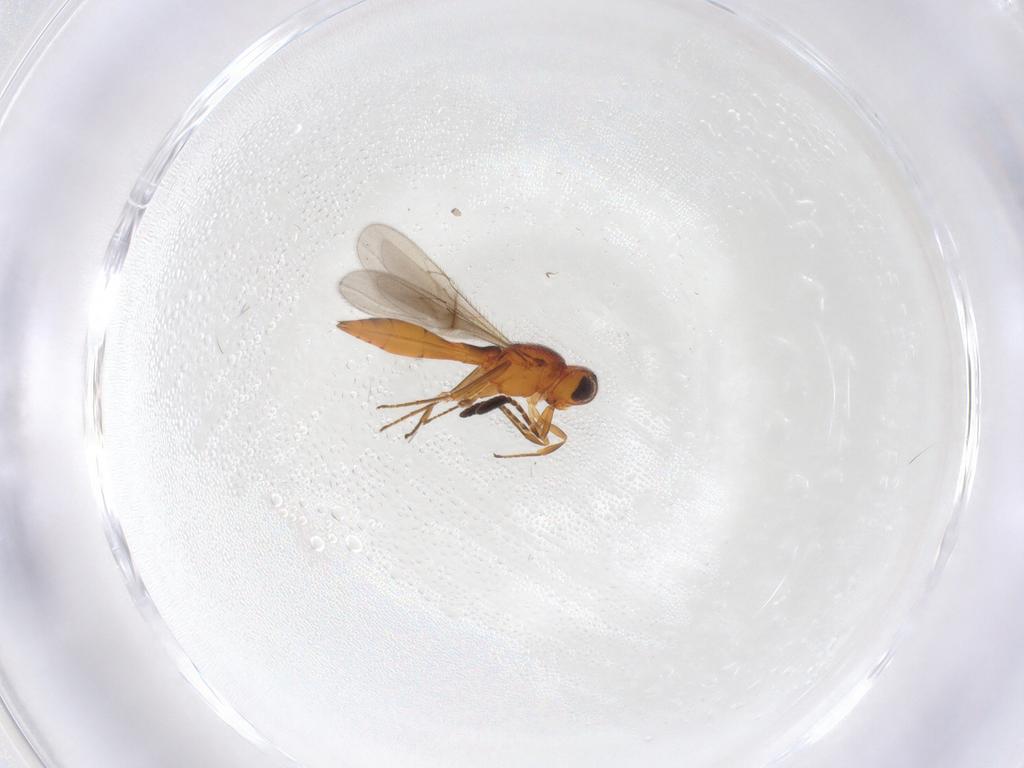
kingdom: Animalia
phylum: Arthropoda
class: Insecta
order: Hymenoptera
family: Scelionidae
